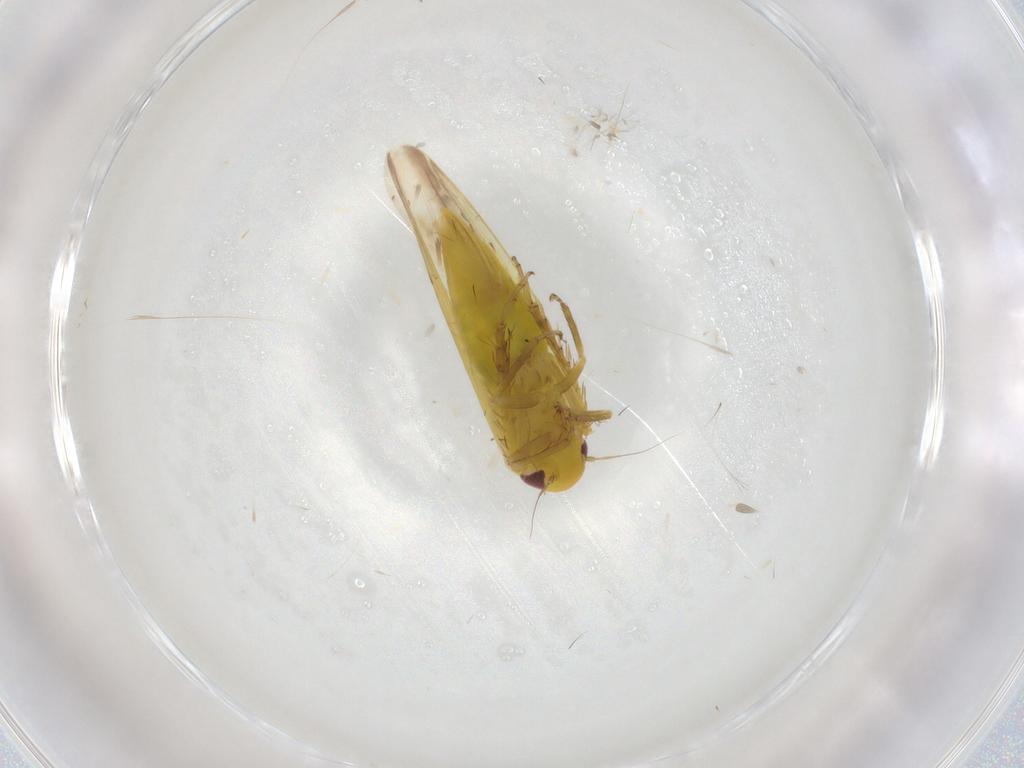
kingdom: Animalia
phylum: Arthropoda
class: Insecta
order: Hemiptera
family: Cicadellidae
